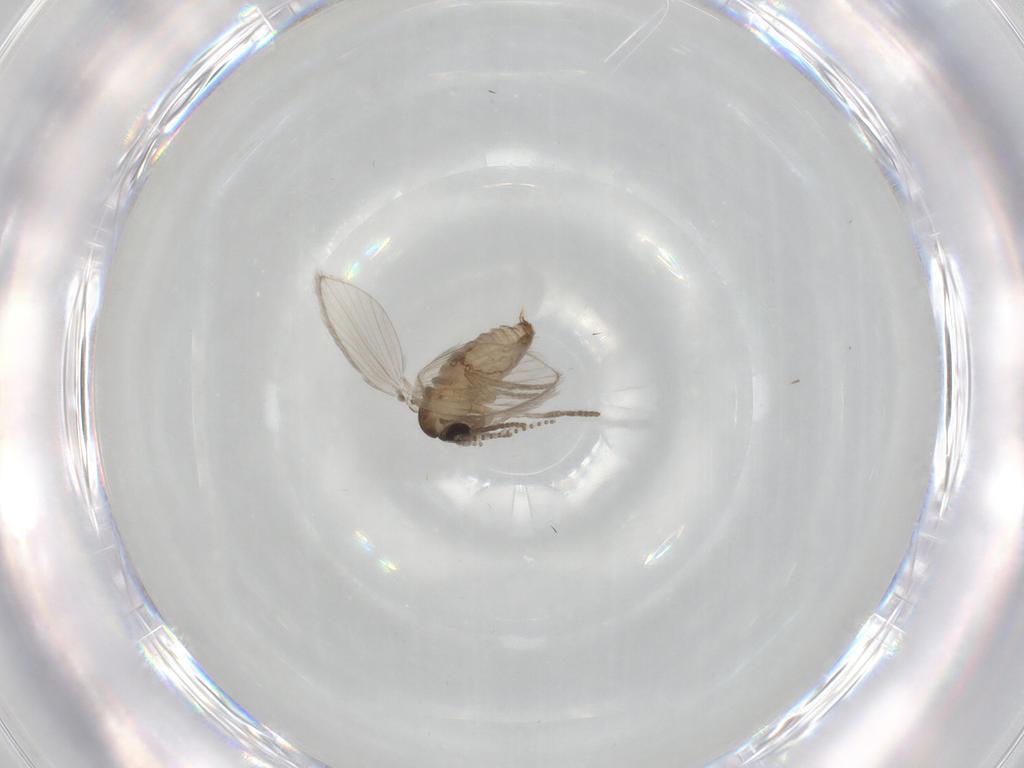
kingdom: Animalia
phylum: Arthropoda
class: Insecta
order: Diptera
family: Psychodidae
